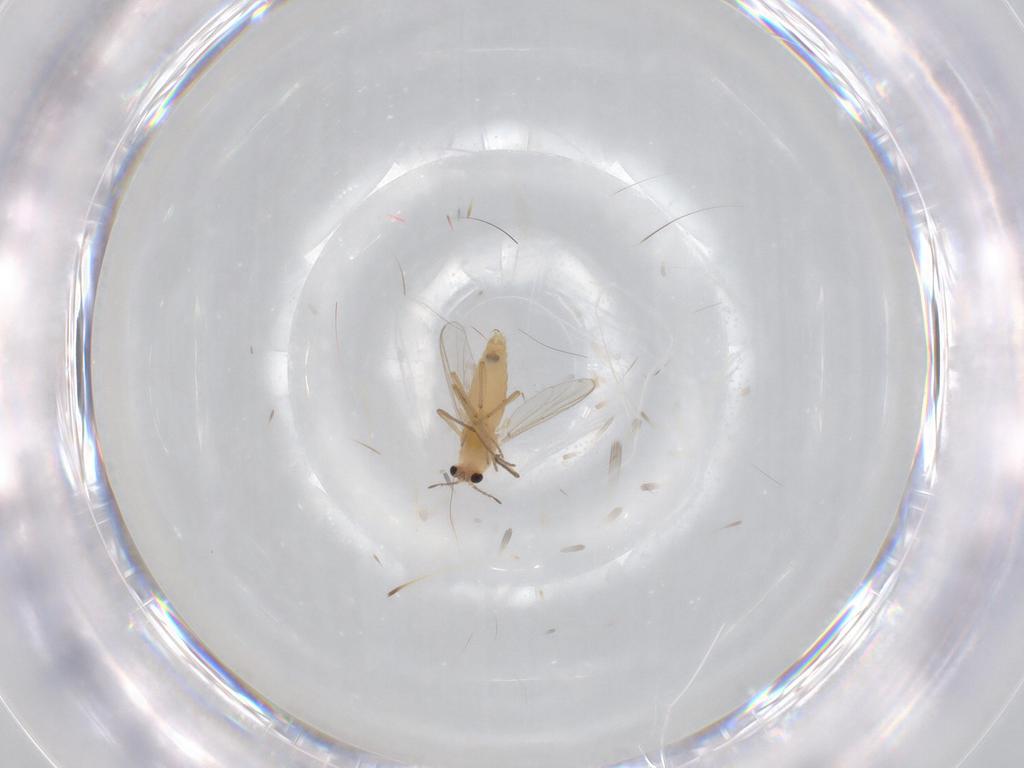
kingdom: Animalia
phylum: Arthropoda
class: Insecta
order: Diptera
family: Chironomidae
